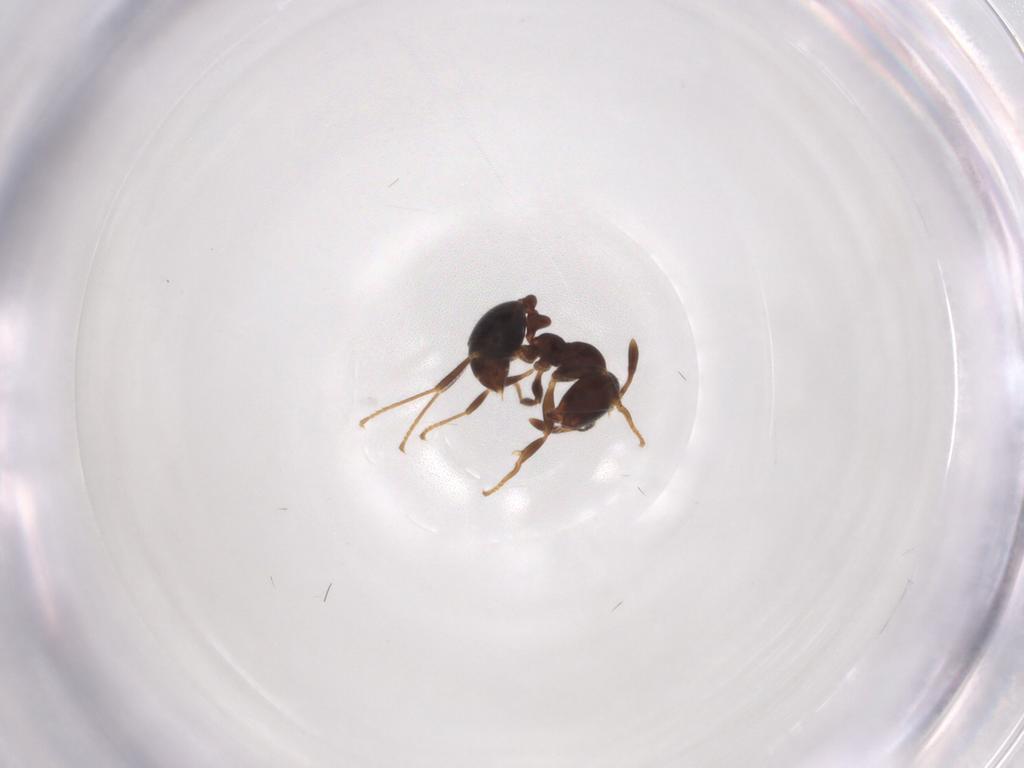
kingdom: Animalia
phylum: Arthropoda
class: Insecta
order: Hymenoptera
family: Formicidae
